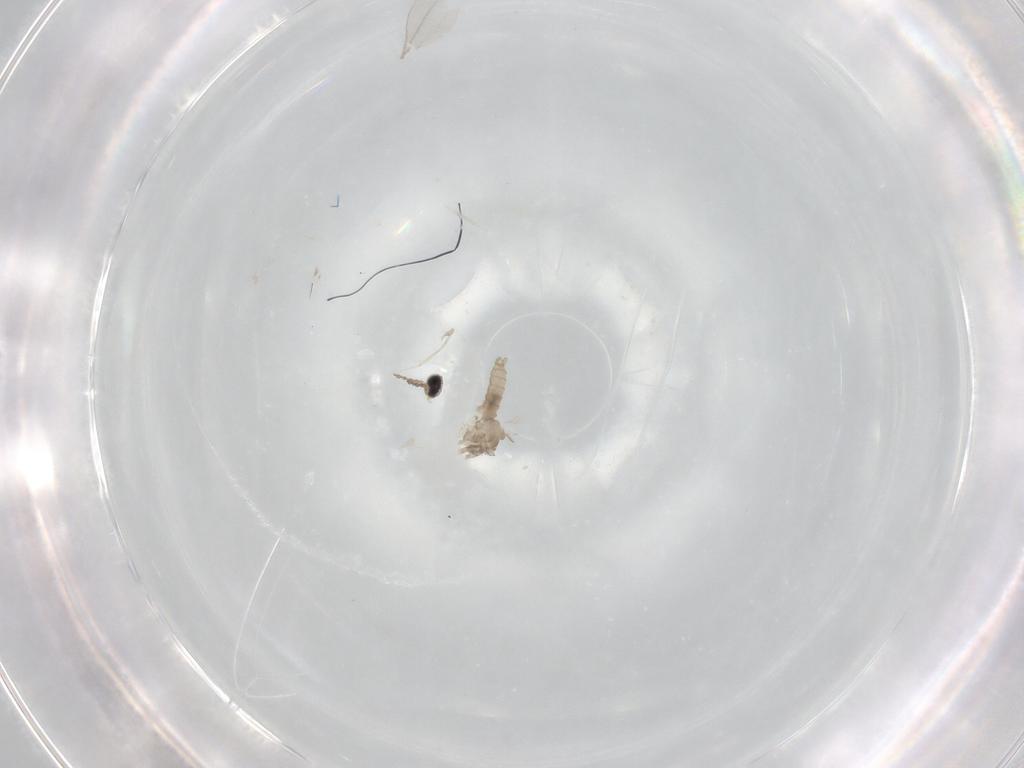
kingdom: Animalia
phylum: Arthropoda
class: Insecta
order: Diptera
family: Cecidomyiidae
